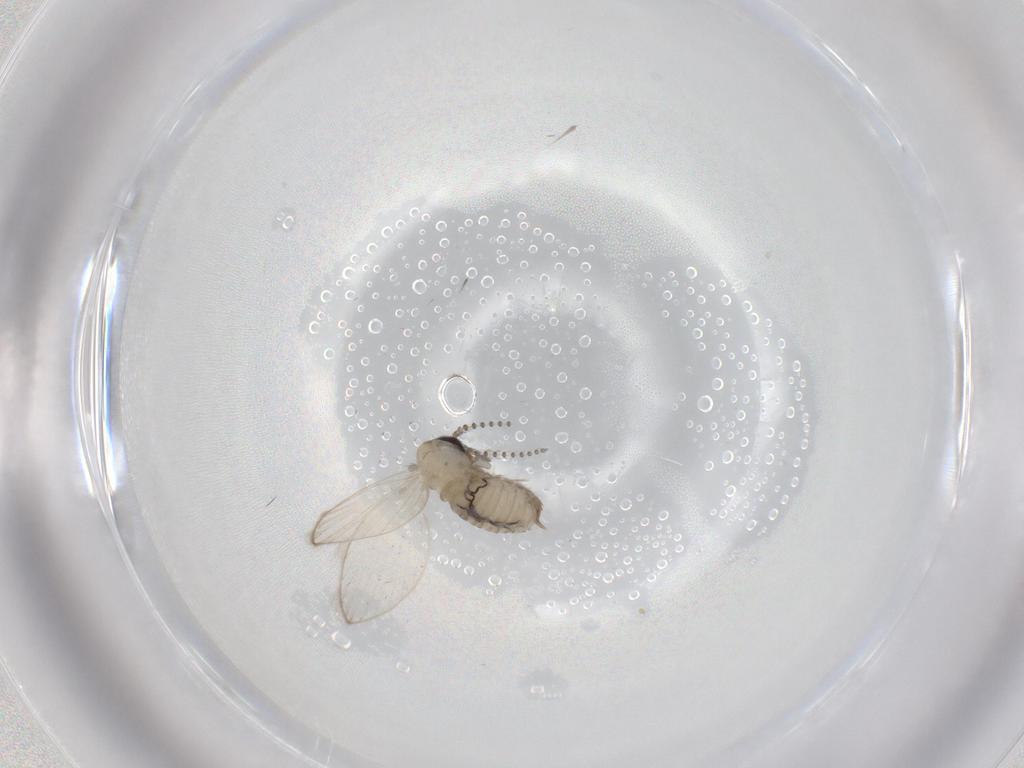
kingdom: Animalia
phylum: Arthropoda
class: Insecta
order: Diptera
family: Psychodidae
